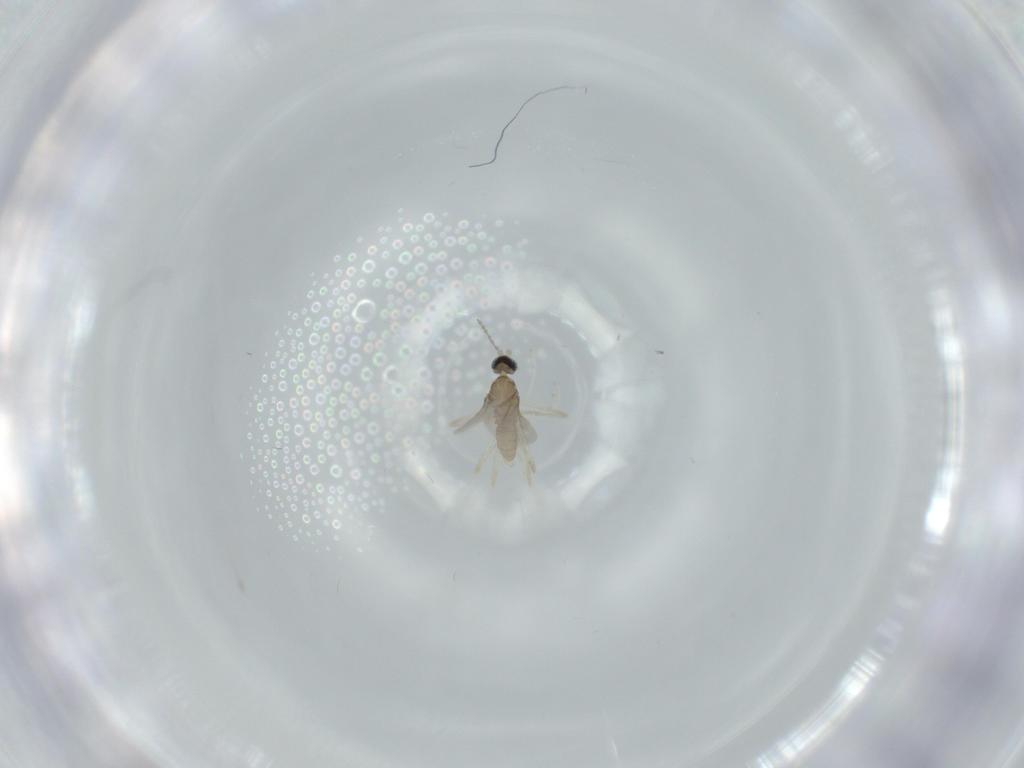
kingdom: Animalia
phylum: Arthropoda
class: Insecta
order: Diptera
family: Cecidomyiidae
